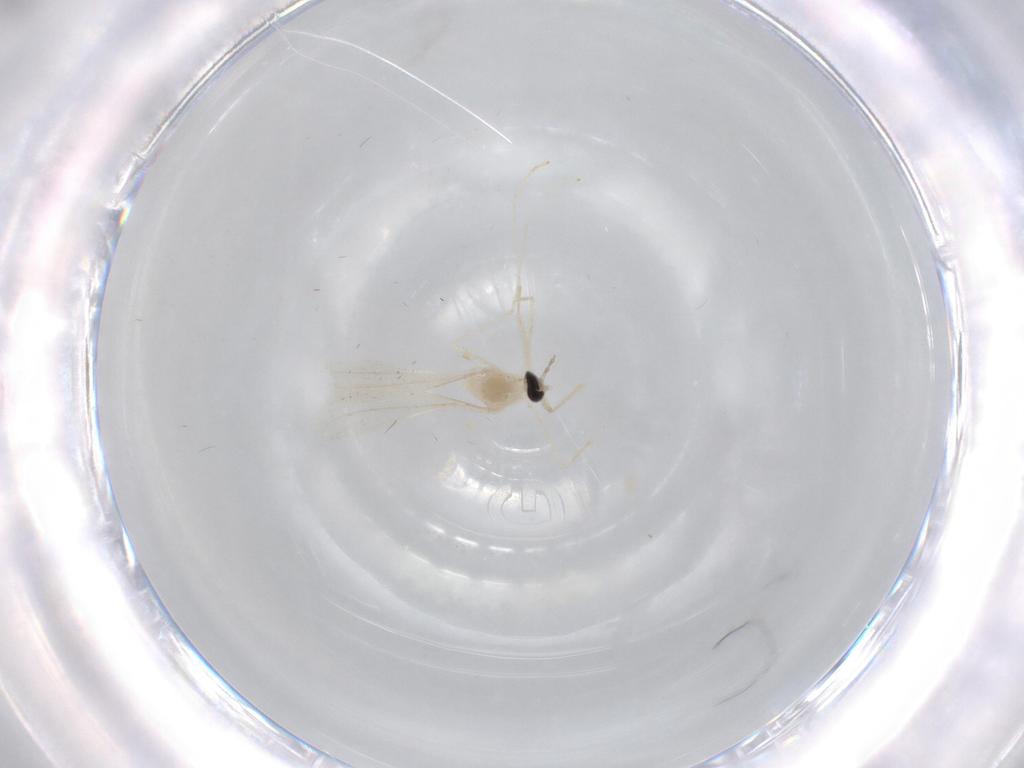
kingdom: Animalia
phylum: Arthropoda
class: Insecta
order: Diptera
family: Cecidomyiidae
